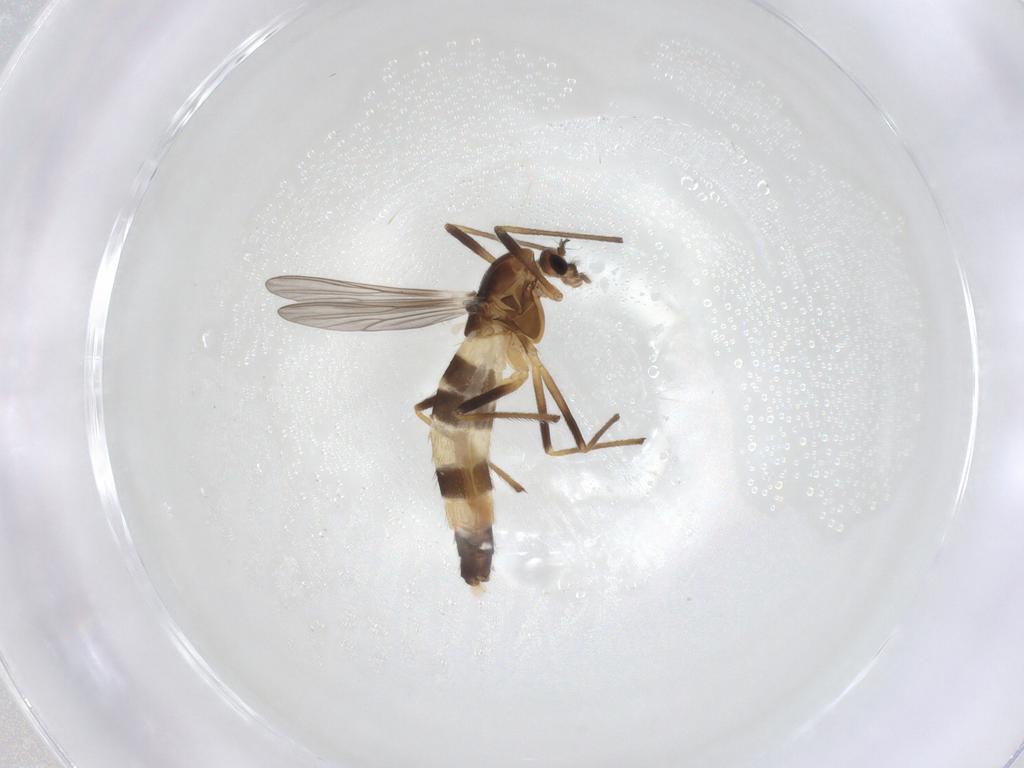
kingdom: Animalia
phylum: Arthropoda
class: Insecta
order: Diptera
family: Chironomidae
